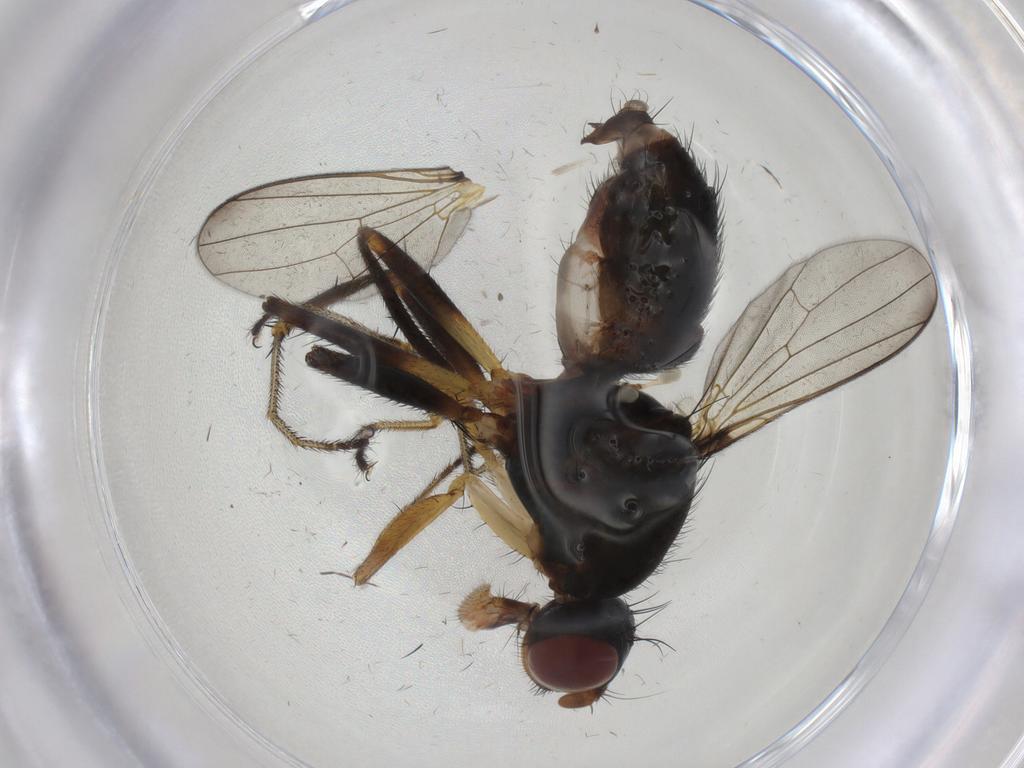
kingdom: Animalia
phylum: Arthropoda
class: Insecta
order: Diptera
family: Sepsidae
